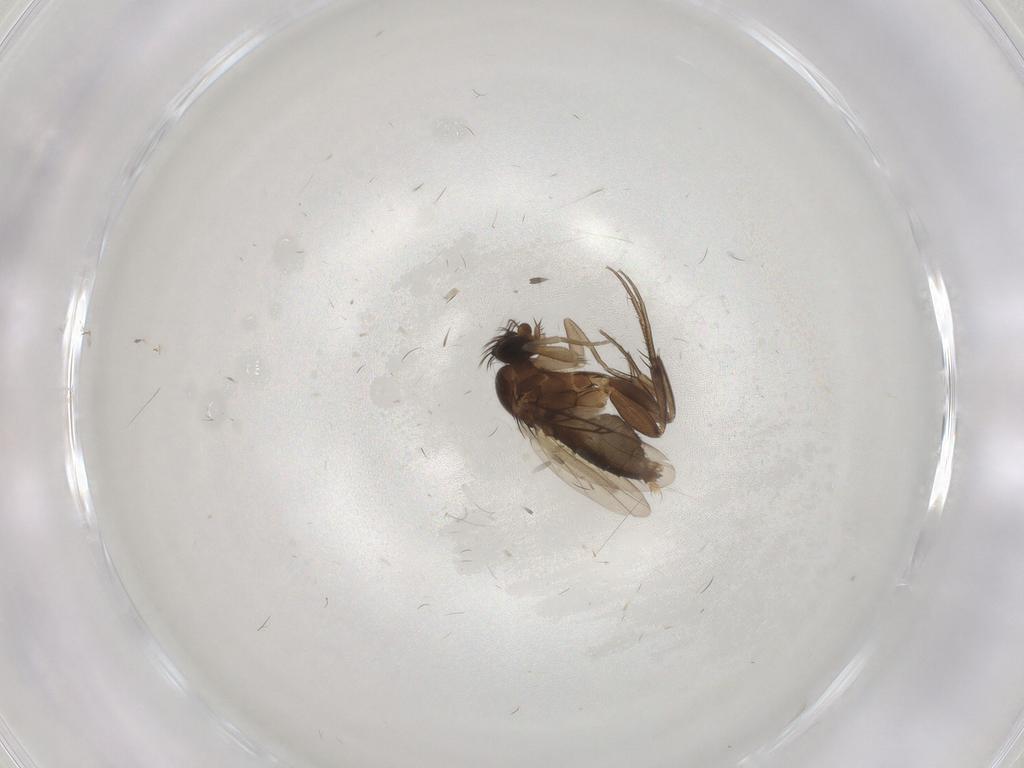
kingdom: Animalia
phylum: Arthropoda
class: Insecta
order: Diptera
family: Phoridae
